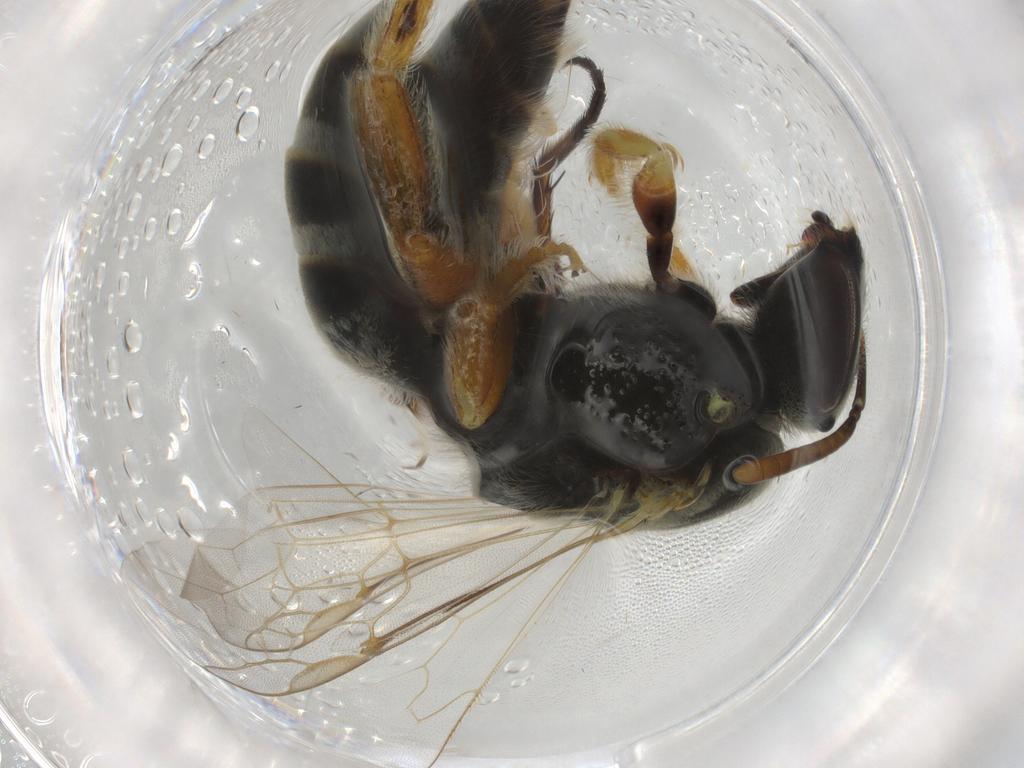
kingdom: Animalia
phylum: Arthropoda
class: Insecta
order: Hymenoptera
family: Vespidae
